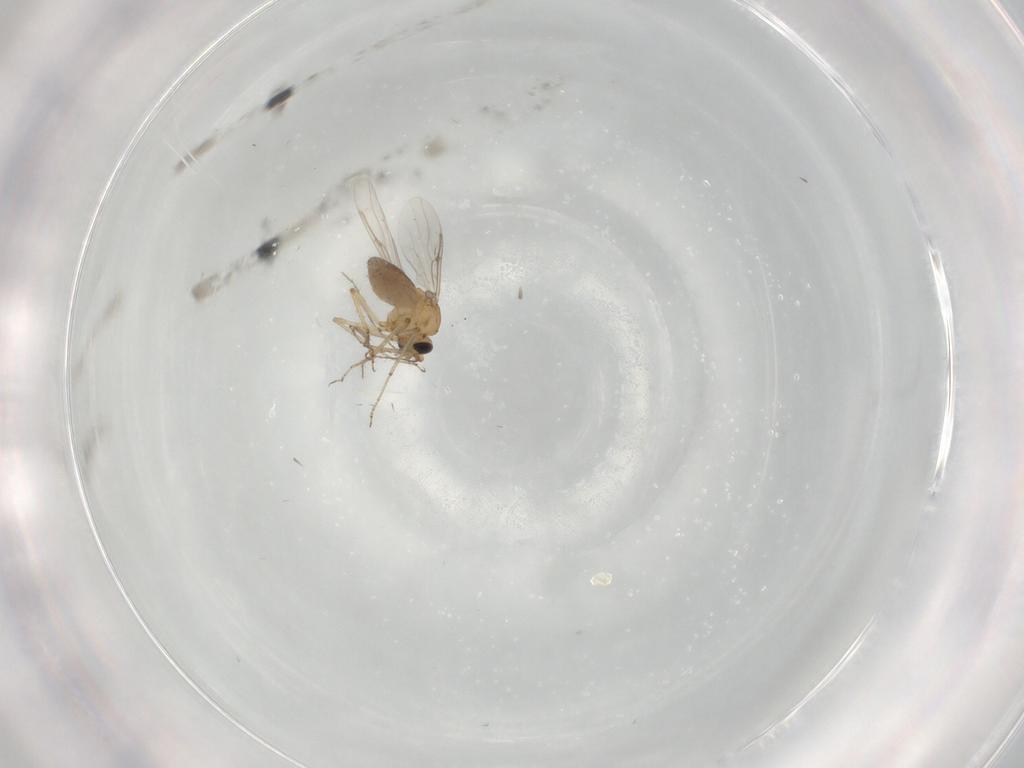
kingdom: Animalia
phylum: Arthropoda
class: Insecta
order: Diptera
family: Ceratopogonidae
